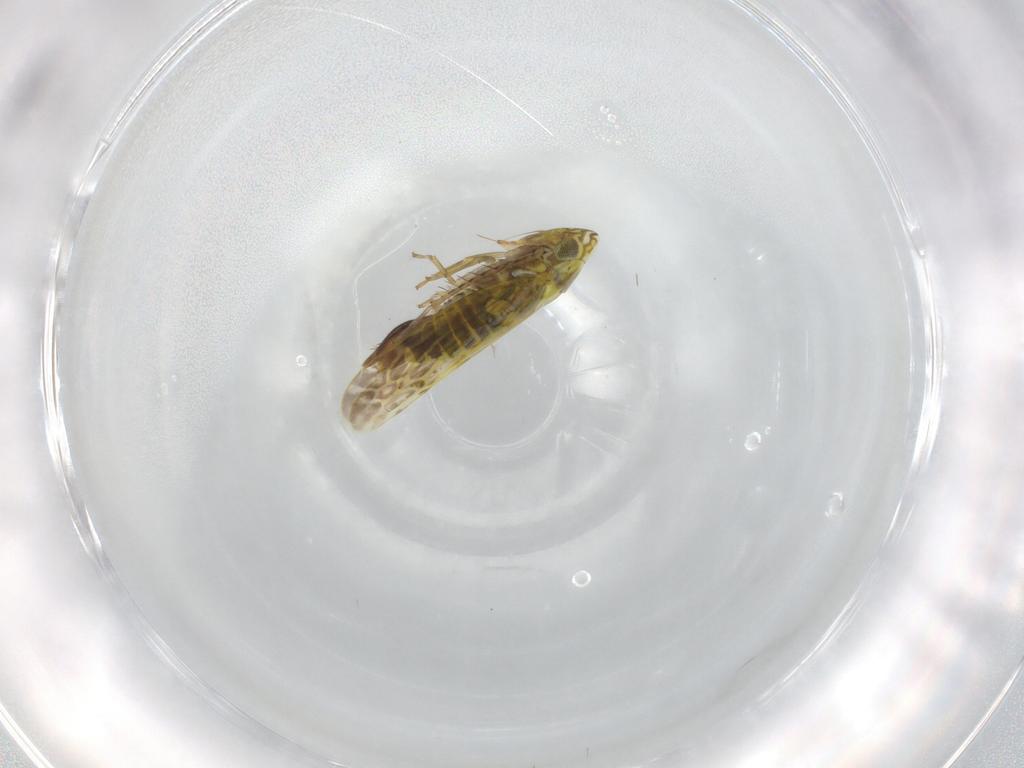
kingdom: Animalia
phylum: Arthropoda
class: Insecta
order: Hemiptera
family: Cicadellidae
